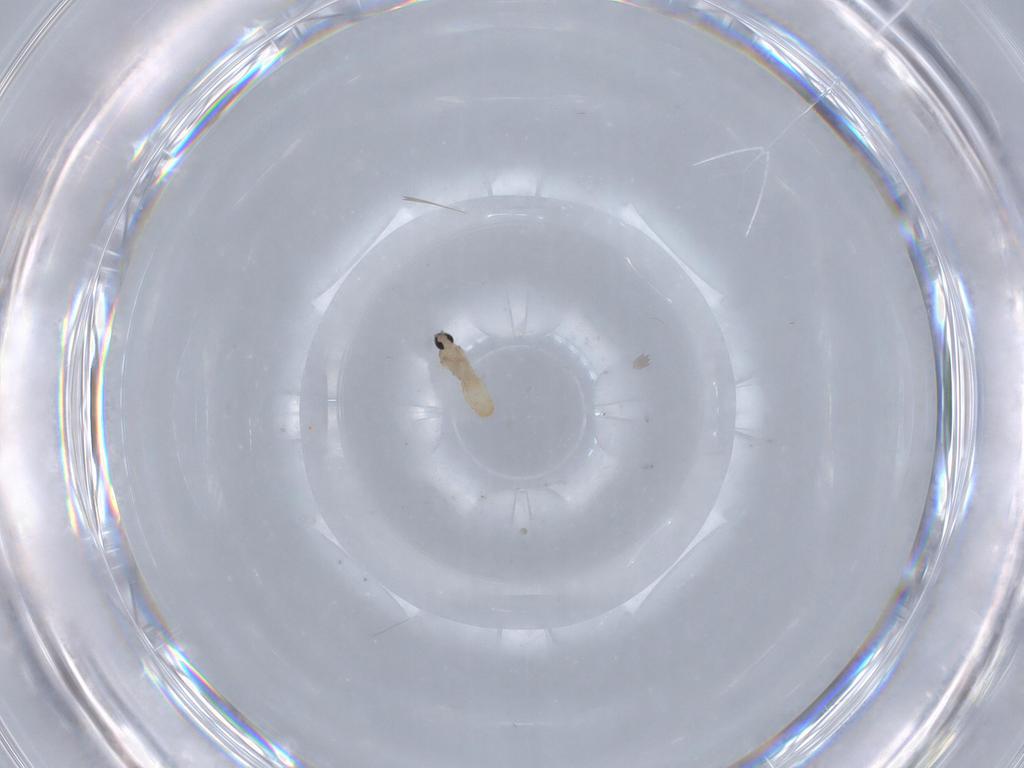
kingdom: Animalia
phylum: Arthropoda
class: Insecta
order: Diptera
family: Cecidomyiidae
